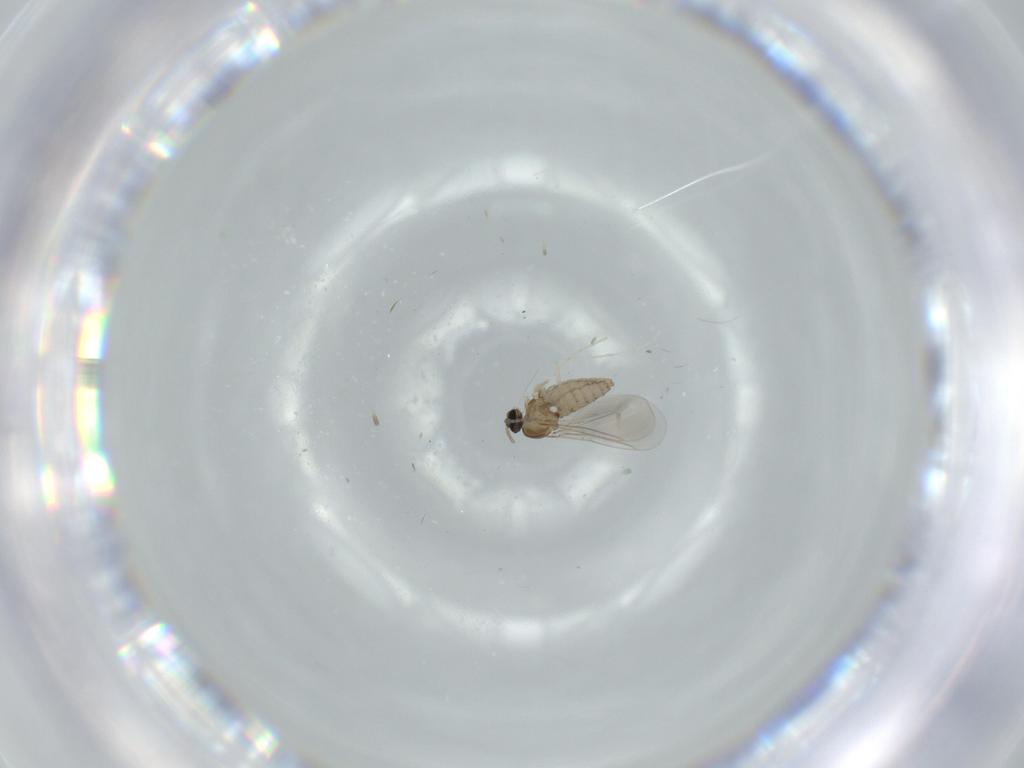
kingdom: Animalia
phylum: Arthropoda
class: Insecta
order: Diptera
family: Cecidomyiidae
